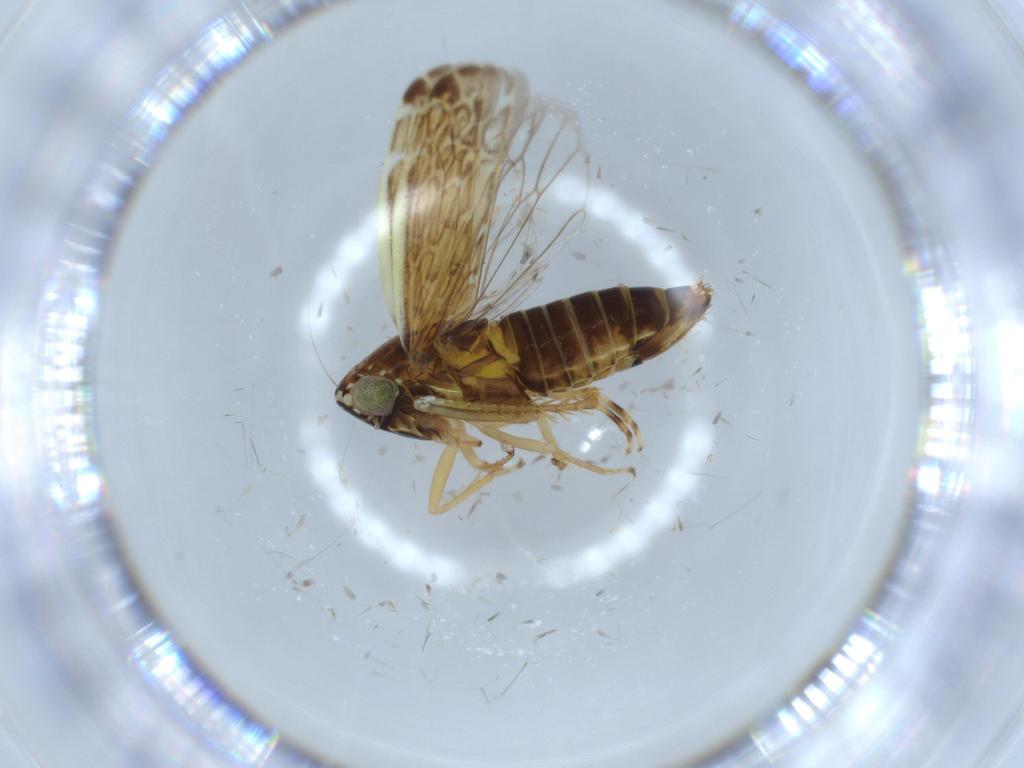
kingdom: Animalia
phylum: Arthropoda
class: Insecta
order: Hemiptera
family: Cicadellidae
